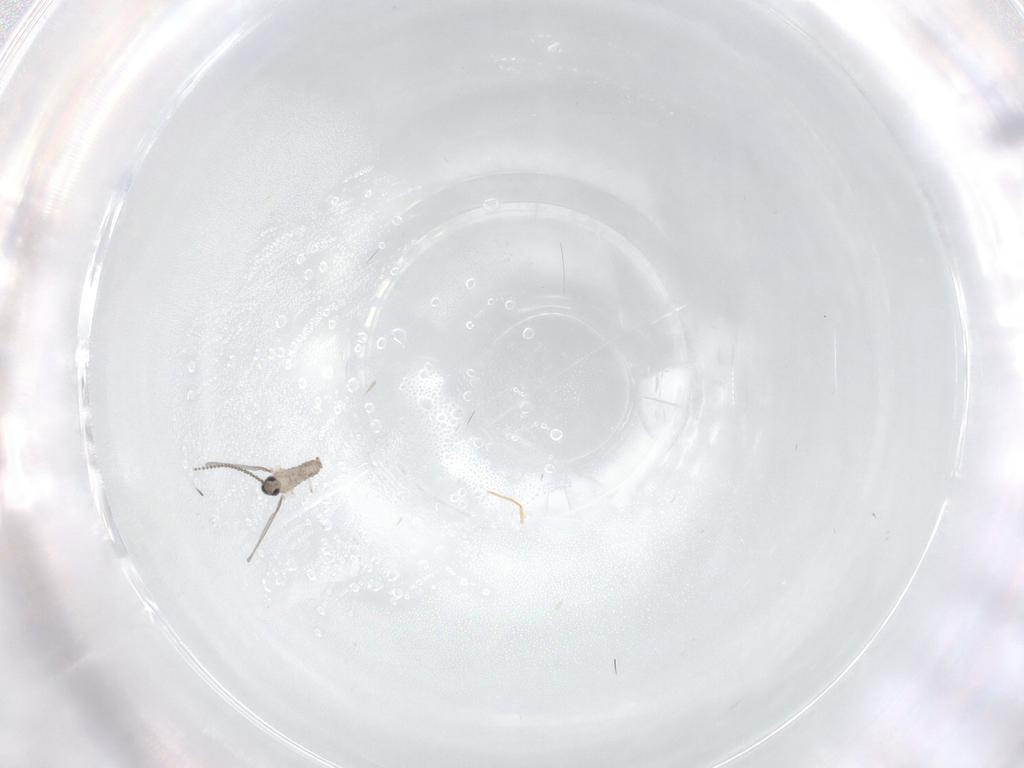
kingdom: Animalia
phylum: Arthropoda
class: Insecta
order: Diptera
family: Cecidomyiidae
